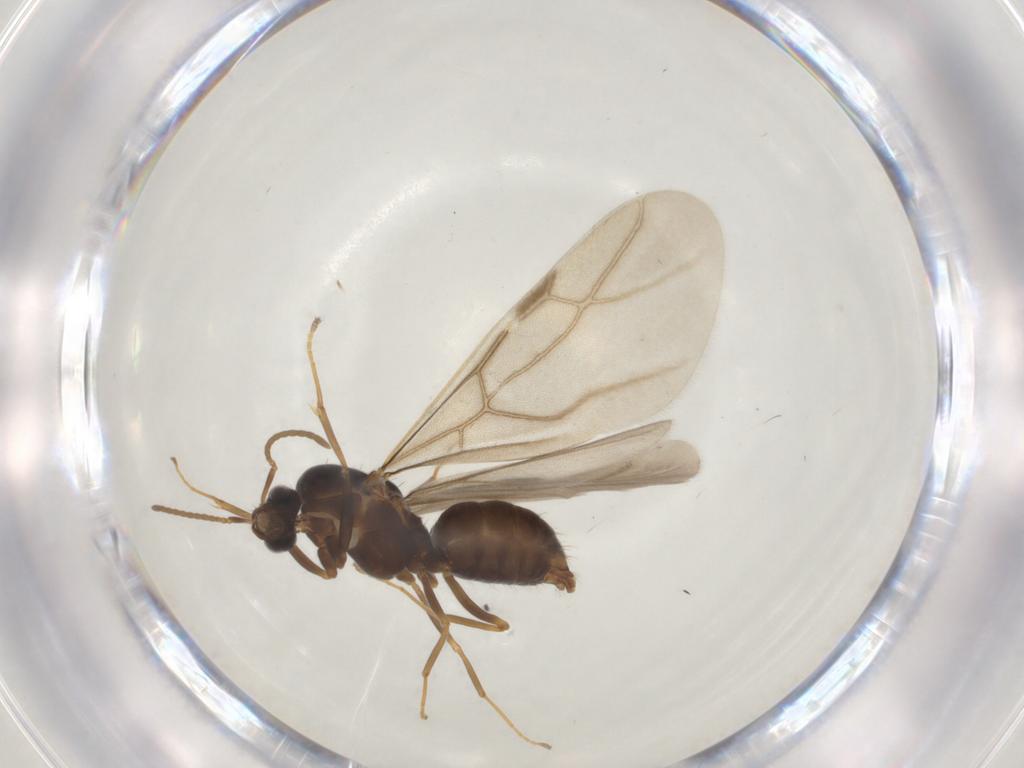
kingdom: Animalia
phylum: Arthropoda
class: Insecta
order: Hymenoptera
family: Formicidae
